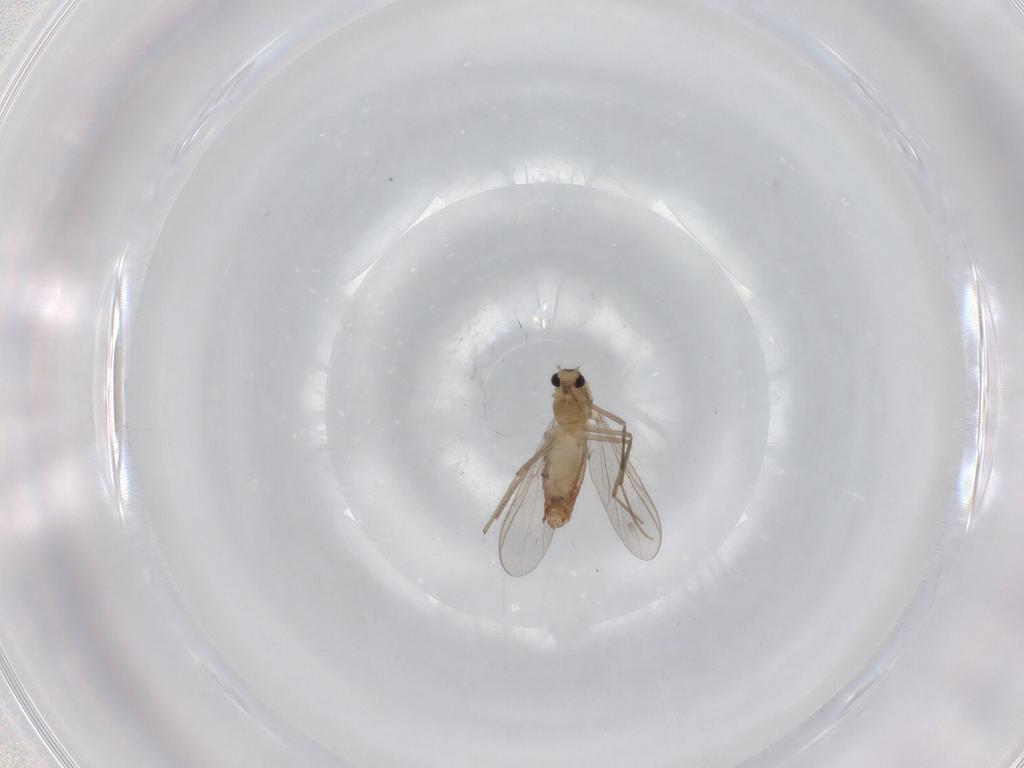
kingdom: Animalia
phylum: Arthropoda
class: Insecta
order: Diptera
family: Chironomidae
